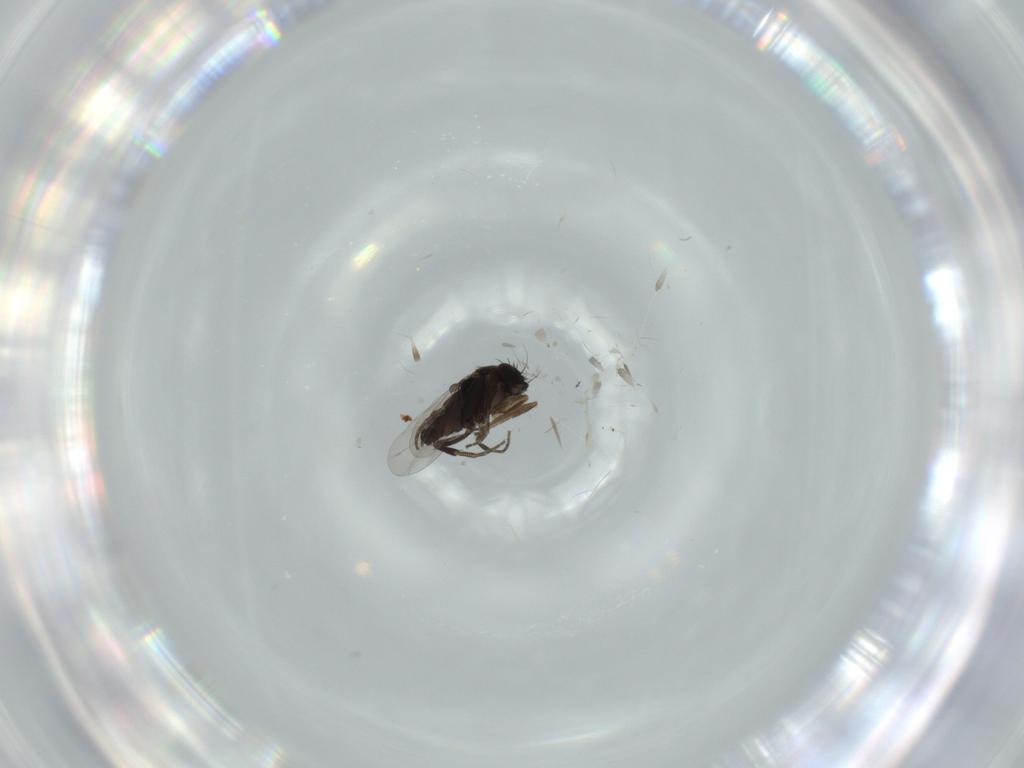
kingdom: Animalia
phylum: Arthropoda
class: Insecta
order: Diptera
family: Cecidomyiidae
